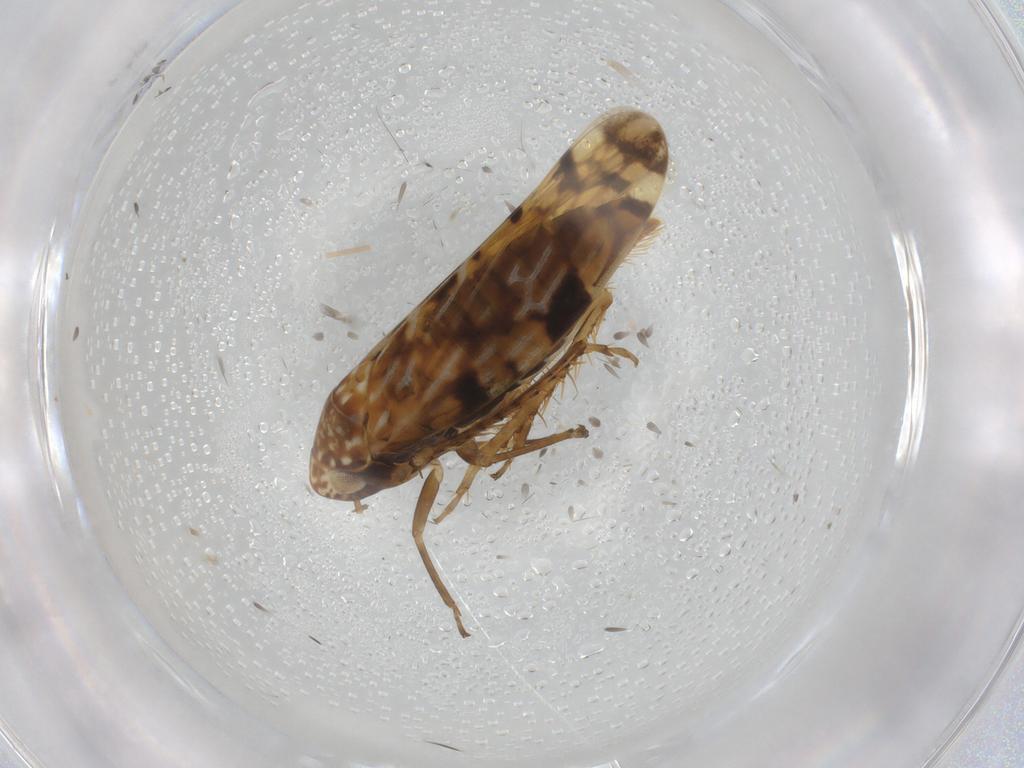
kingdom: Animalia
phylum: Arthropoda
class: Insecta
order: Hemiptera
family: Cicadellidae
